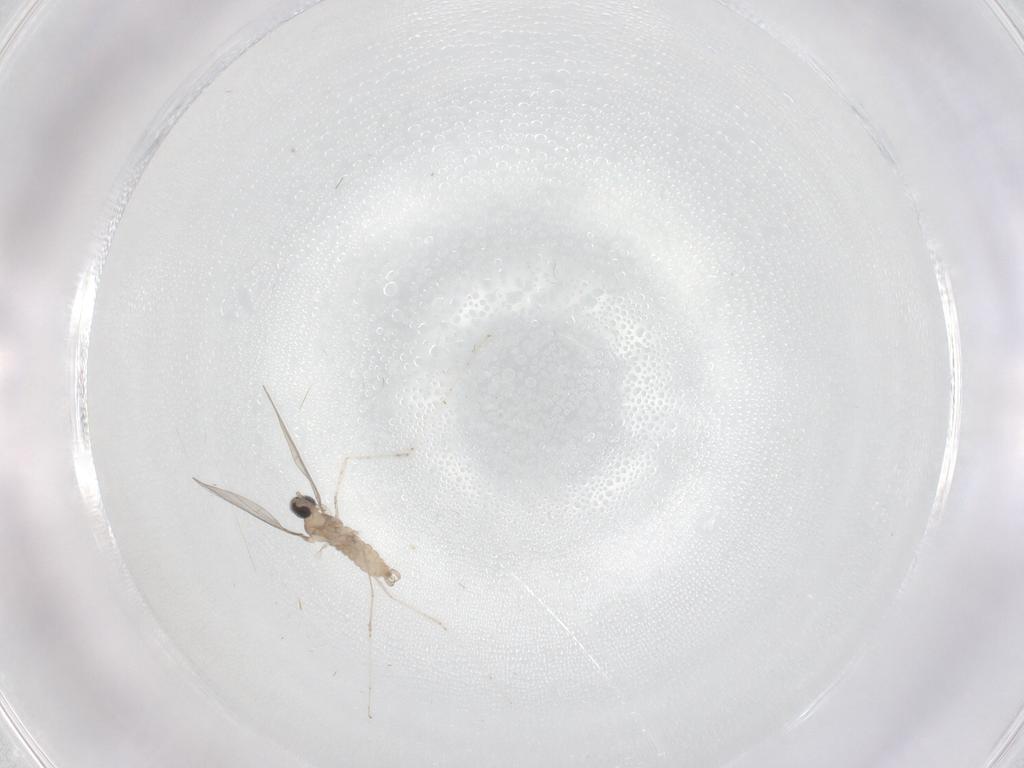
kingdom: Animalia
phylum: Arthropoda
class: Insecta
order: Diptera
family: Cecidomyiidae
